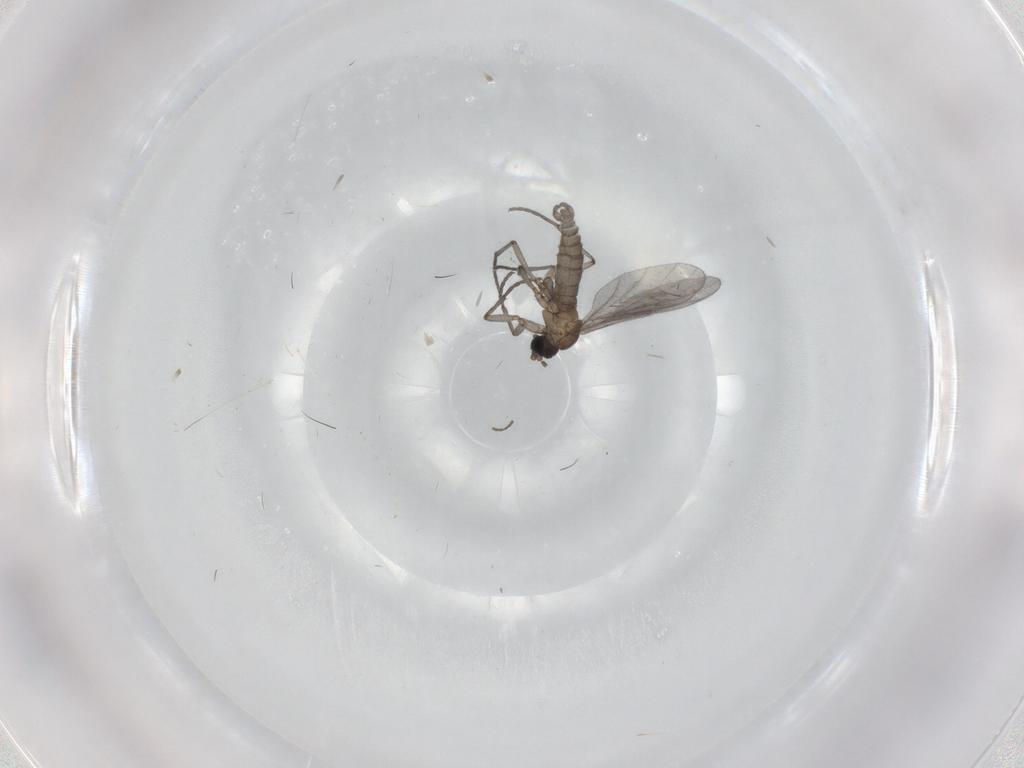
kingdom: Animalia
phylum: Arthropoda
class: Insecta
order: Diptera
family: Sciaridae
